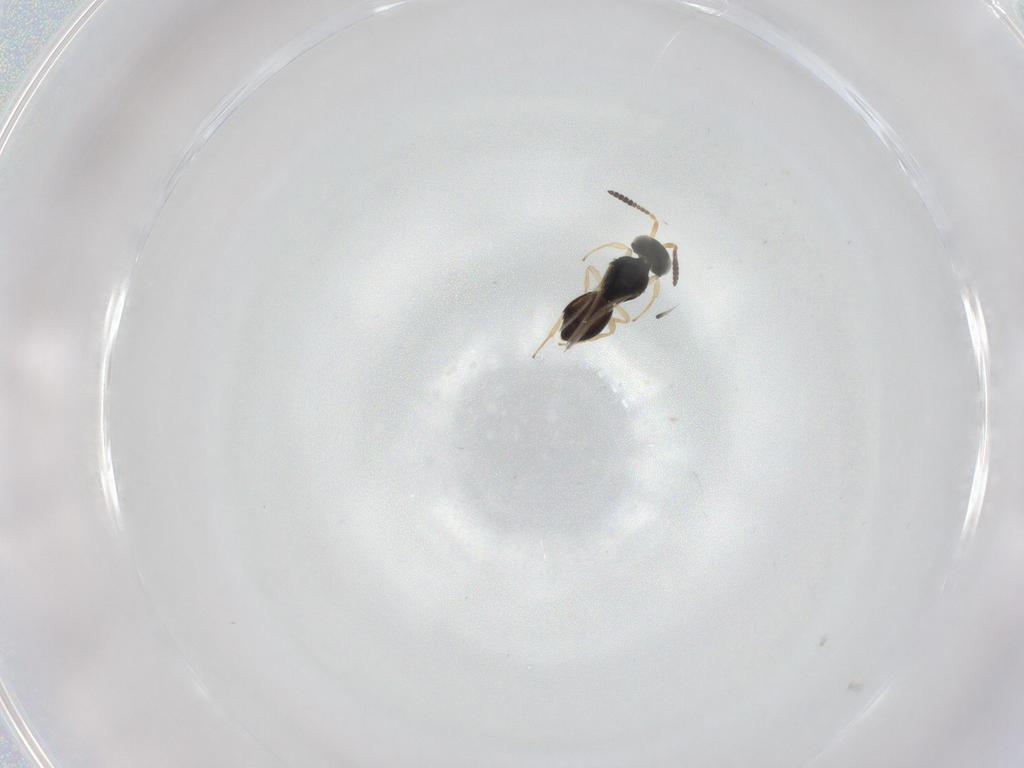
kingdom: Animalia
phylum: Arthropoda
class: Insecta
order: Hymenoptera
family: Scelionidae
